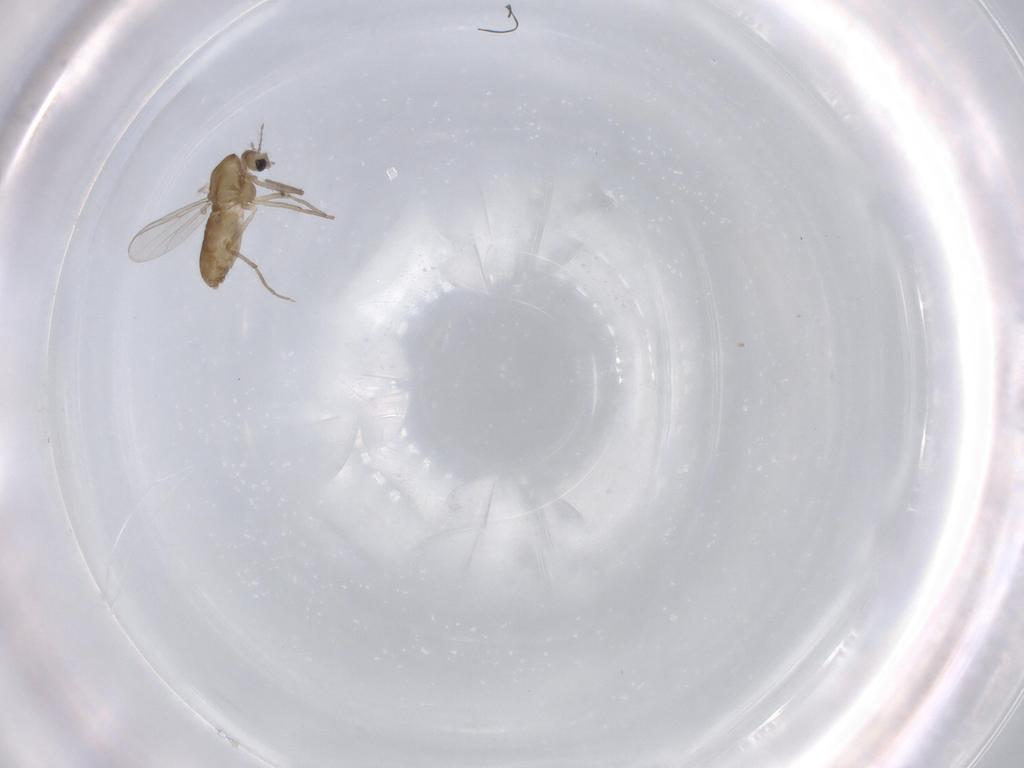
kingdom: Animalia
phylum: Arthropoda
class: Insecta
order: Diptera
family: Chironomidae
